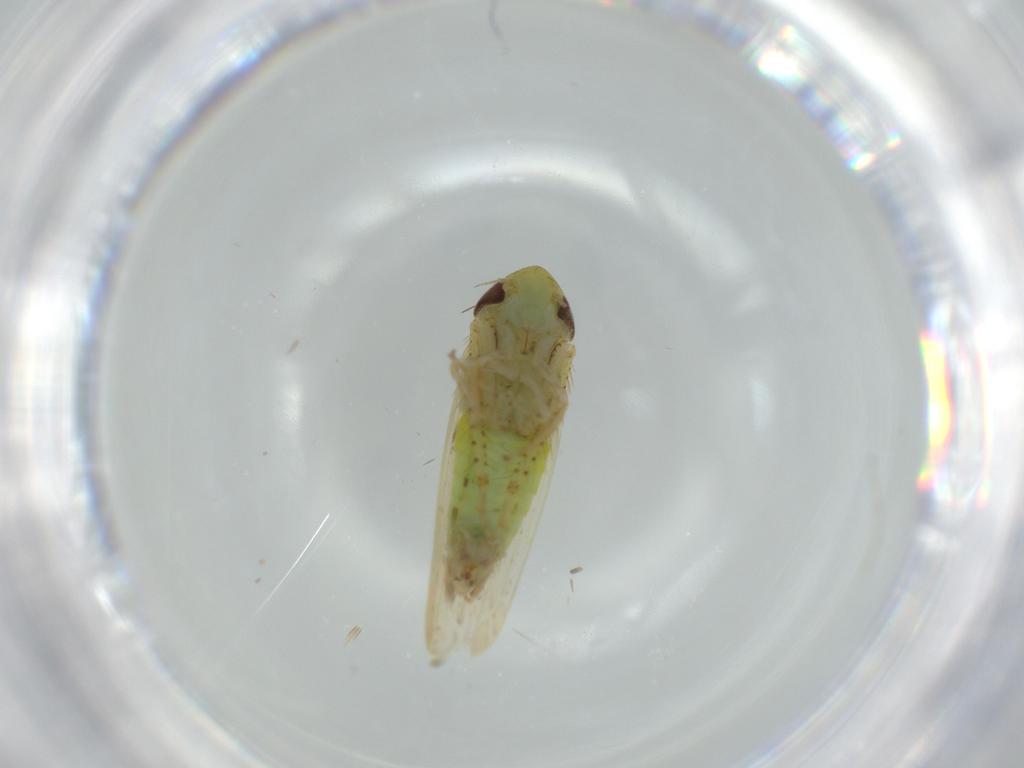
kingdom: Animalia
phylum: Arthropoda
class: Insecta
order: Hemiptera
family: Cicadellidae
